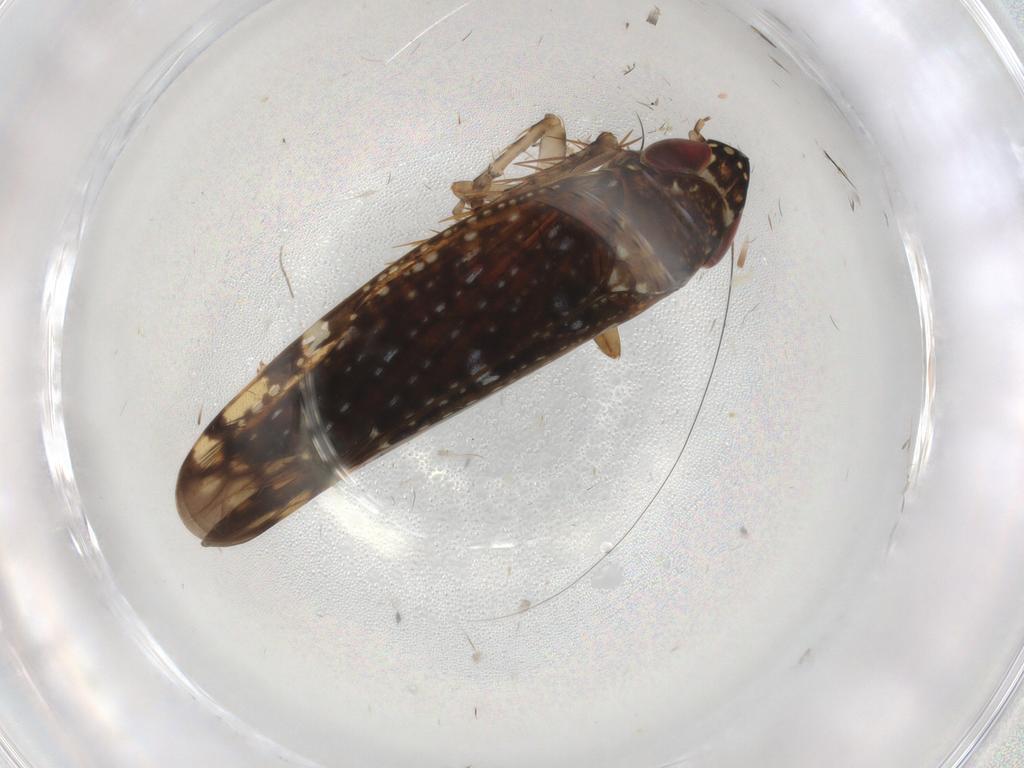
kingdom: Animalia
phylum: Arthropoda
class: Insecta
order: Hemiptera
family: Cicadellidae
